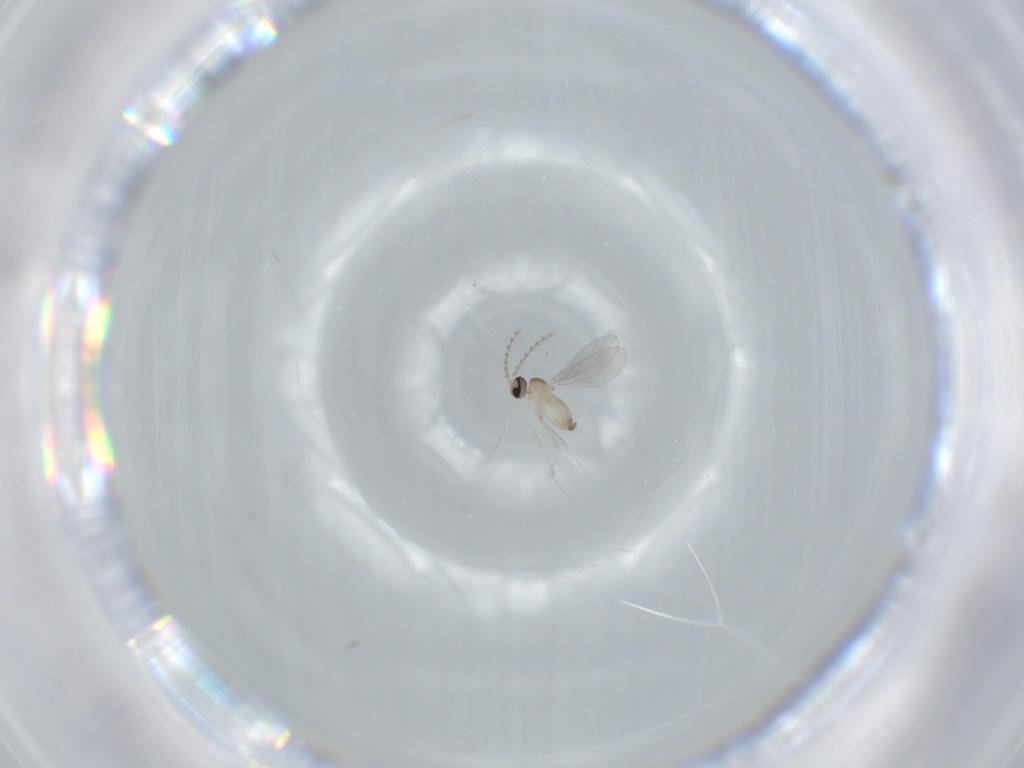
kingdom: Animalia
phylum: Arthropoda
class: Insecta
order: Diptera
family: Cecidomyiidae
